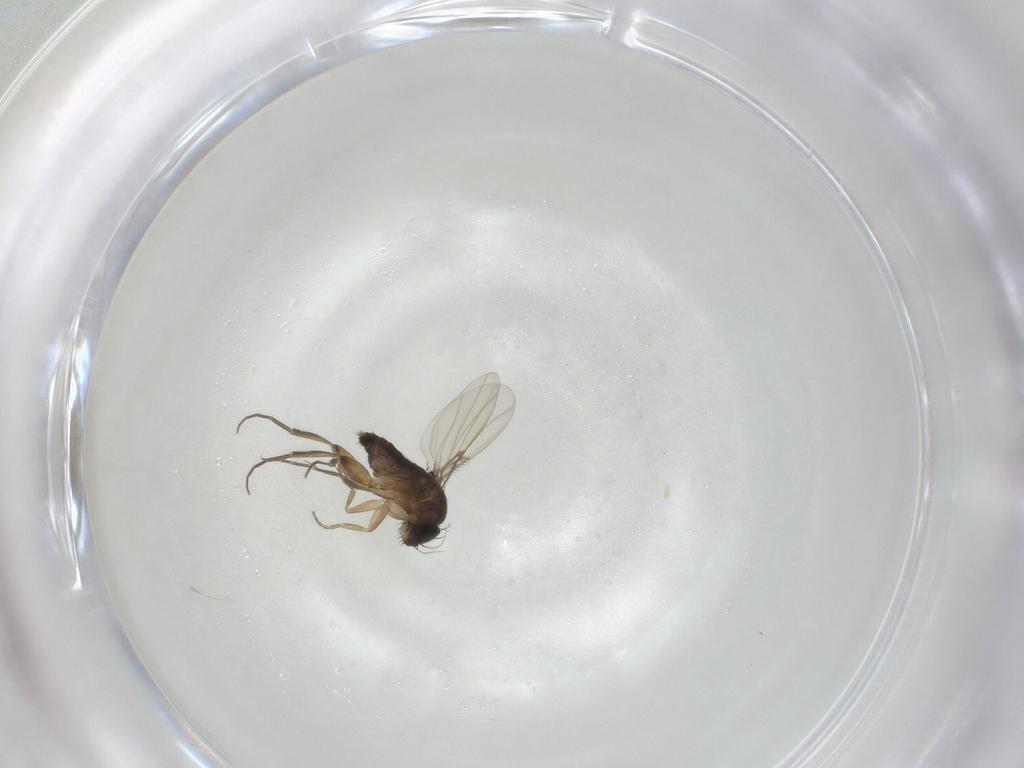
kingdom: Animalia
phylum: Arthropoda
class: Insecta
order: Diptera
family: Phoridae
